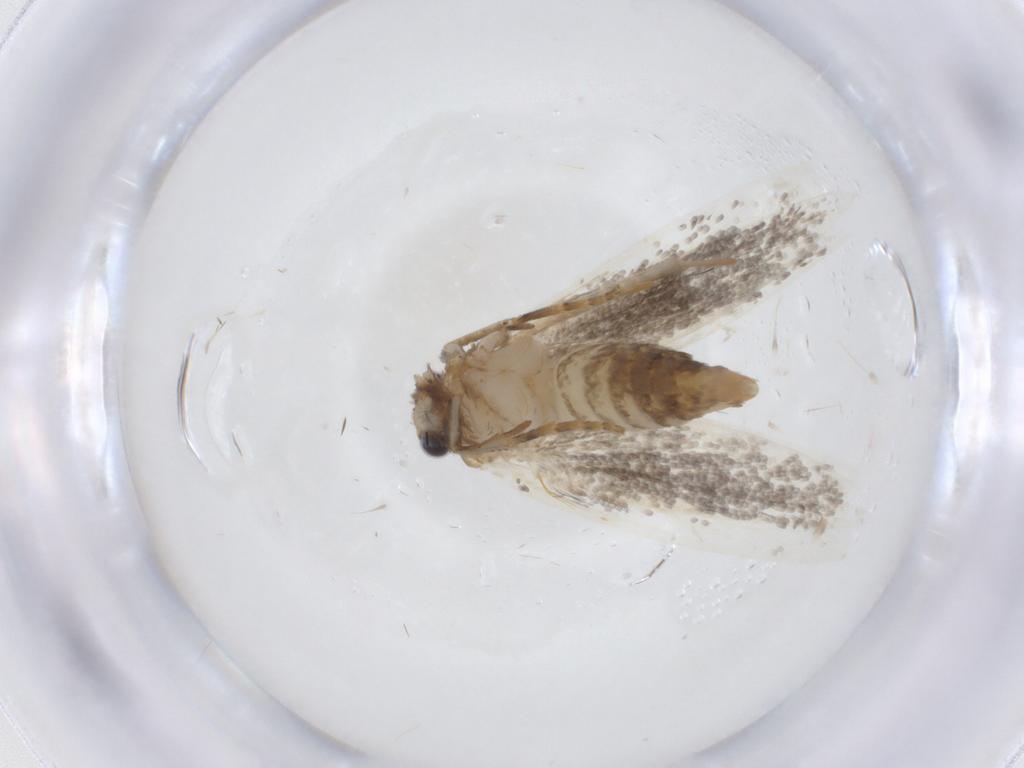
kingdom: Animalia
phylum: Arthropoda
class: Insecta
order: Lepidoptera
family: Tineidae
